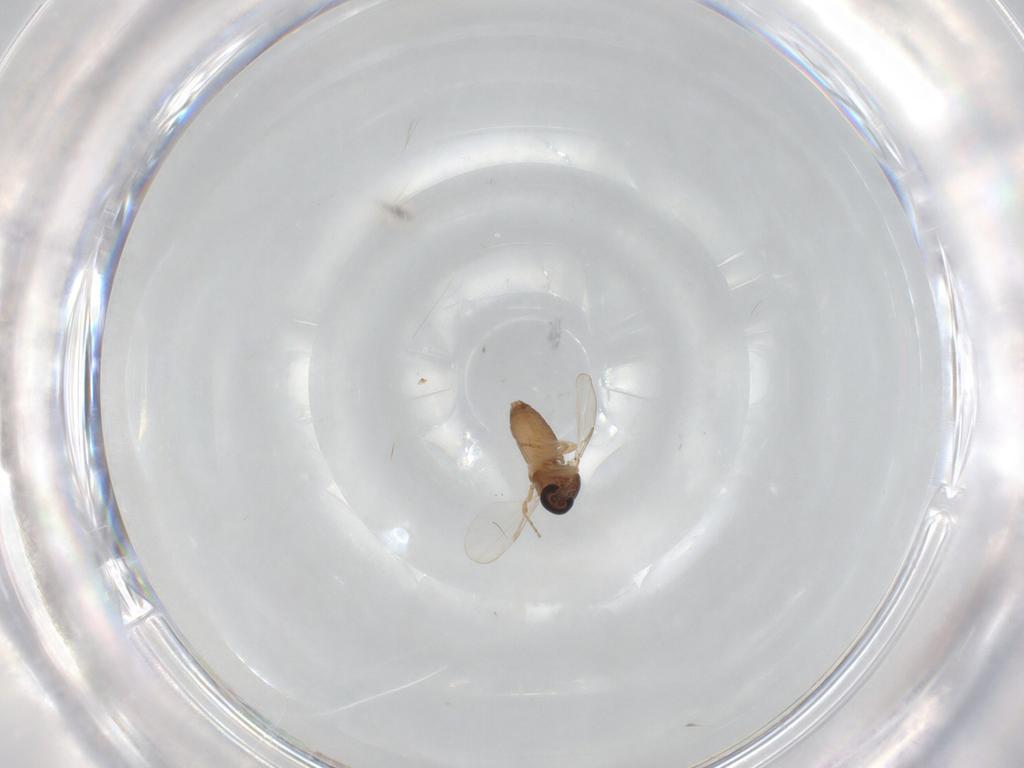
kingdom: Animalia
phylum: Arthropoda
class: Insecta
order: Diptera
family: Ceratopogonidae
